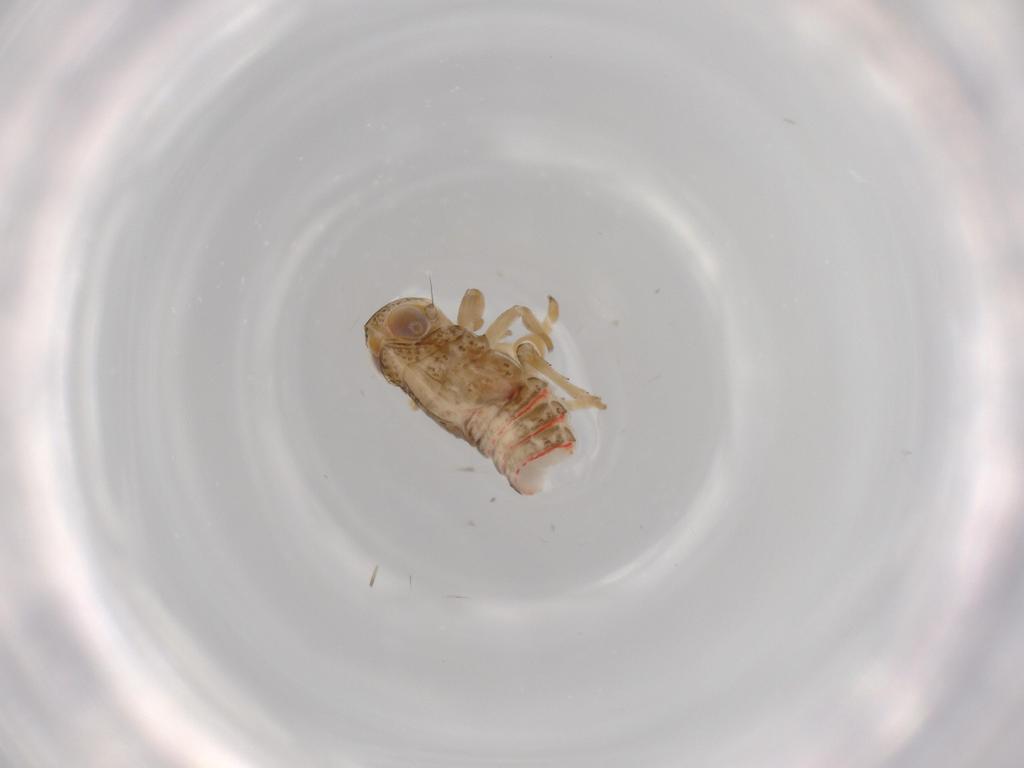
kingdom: Animalia
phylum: Arthropoda
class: Insecta
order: Hemiptera
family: Issidae
